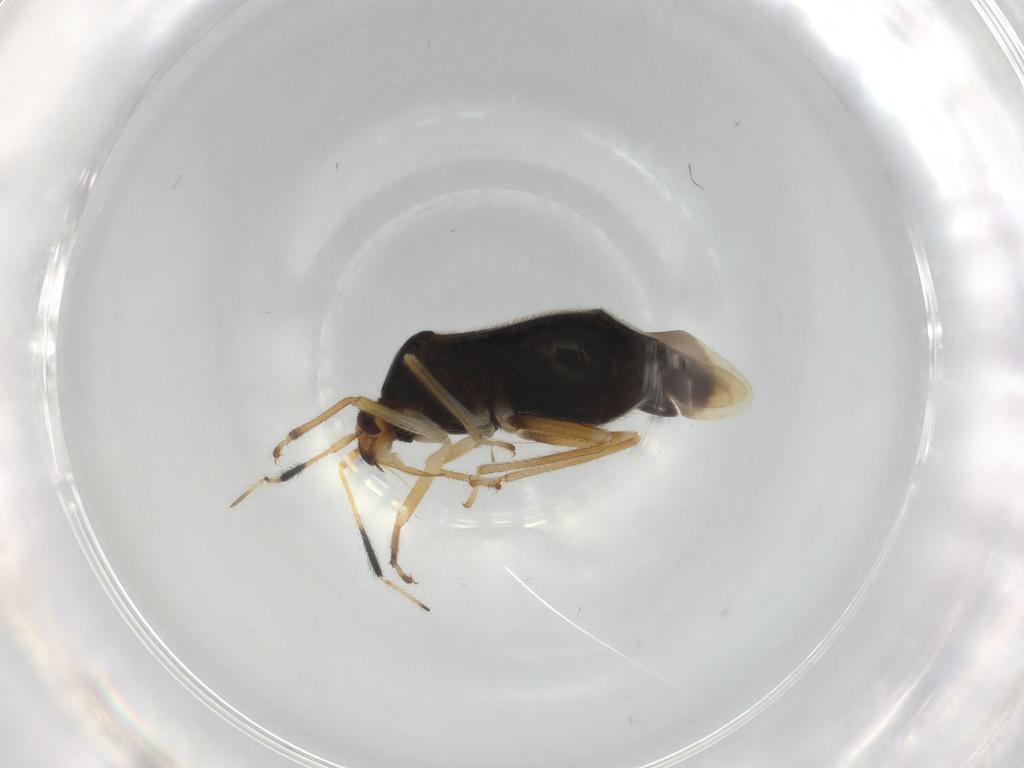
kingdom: Animalia
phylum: Arthropoda
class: Insecta
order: Hemiptera
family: Miridae
